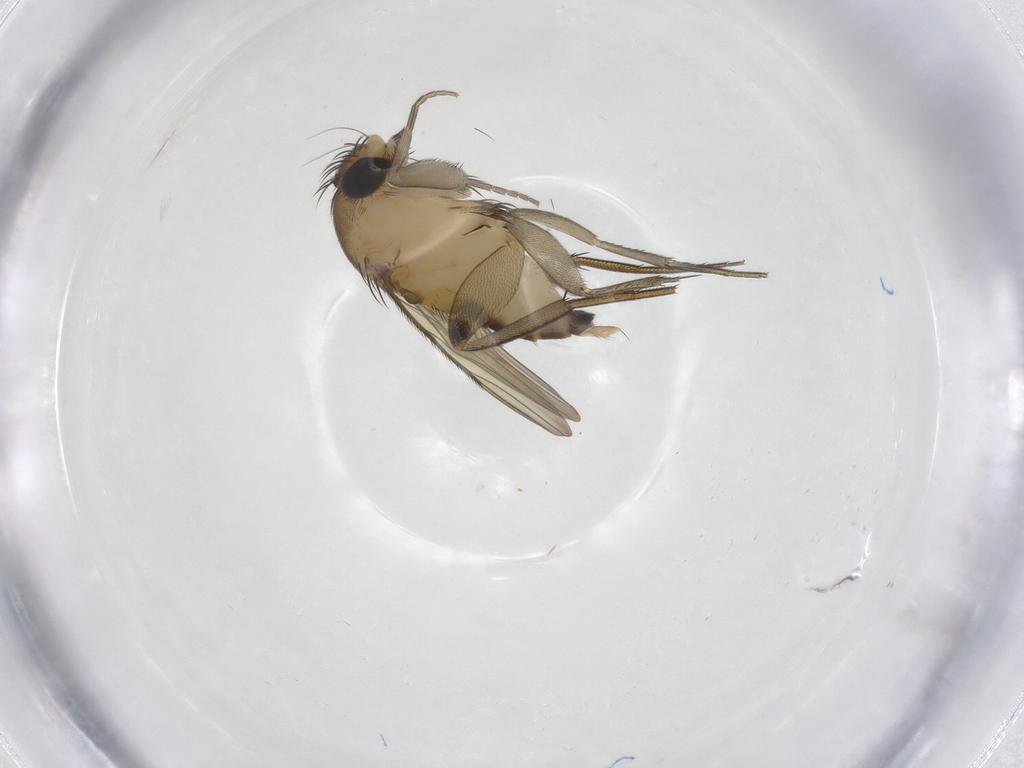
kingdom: Animalia
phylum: Arthropoda
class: Insecta
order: Diptera
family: Phoridae
